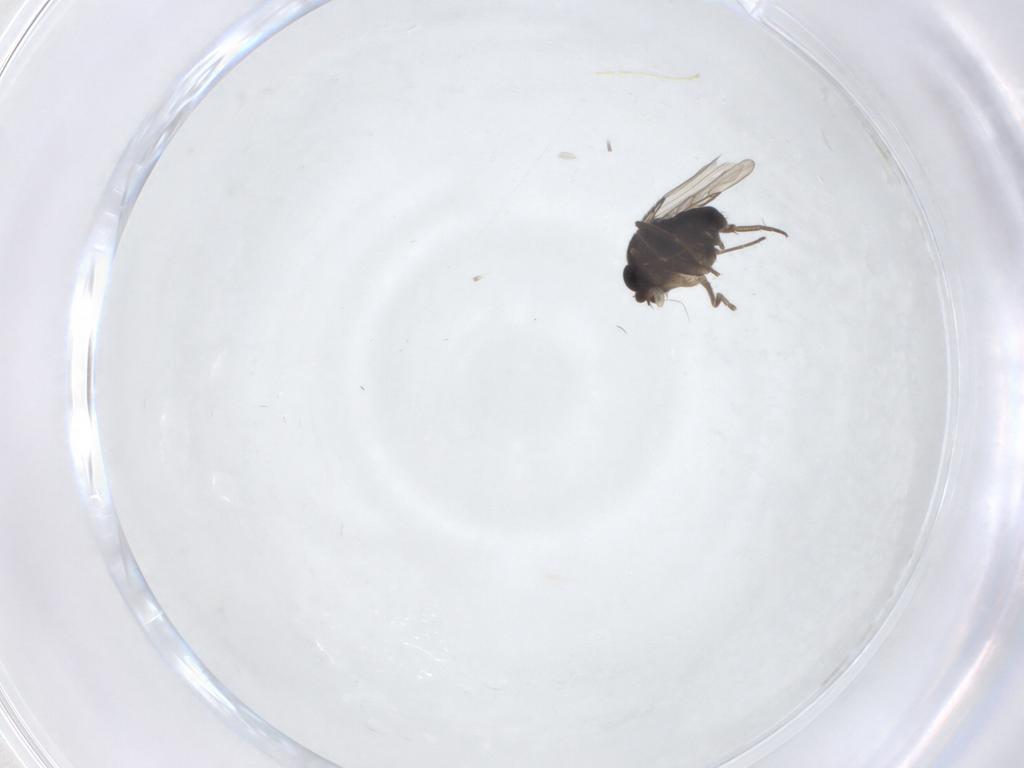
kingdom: Animalia
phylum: Arthropoda
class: Insecta
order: Diptera
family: Phoridae
